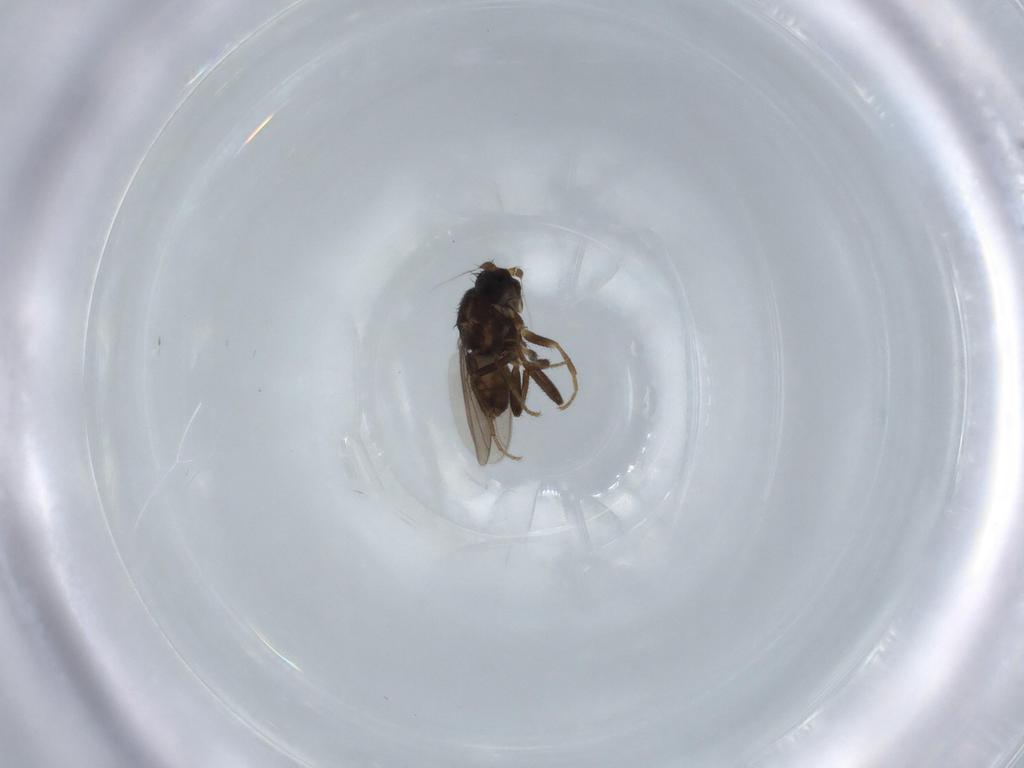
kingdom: Animalia
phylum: Arthropoda
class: Insecta
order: Diptera
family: Sphaeroceridae
